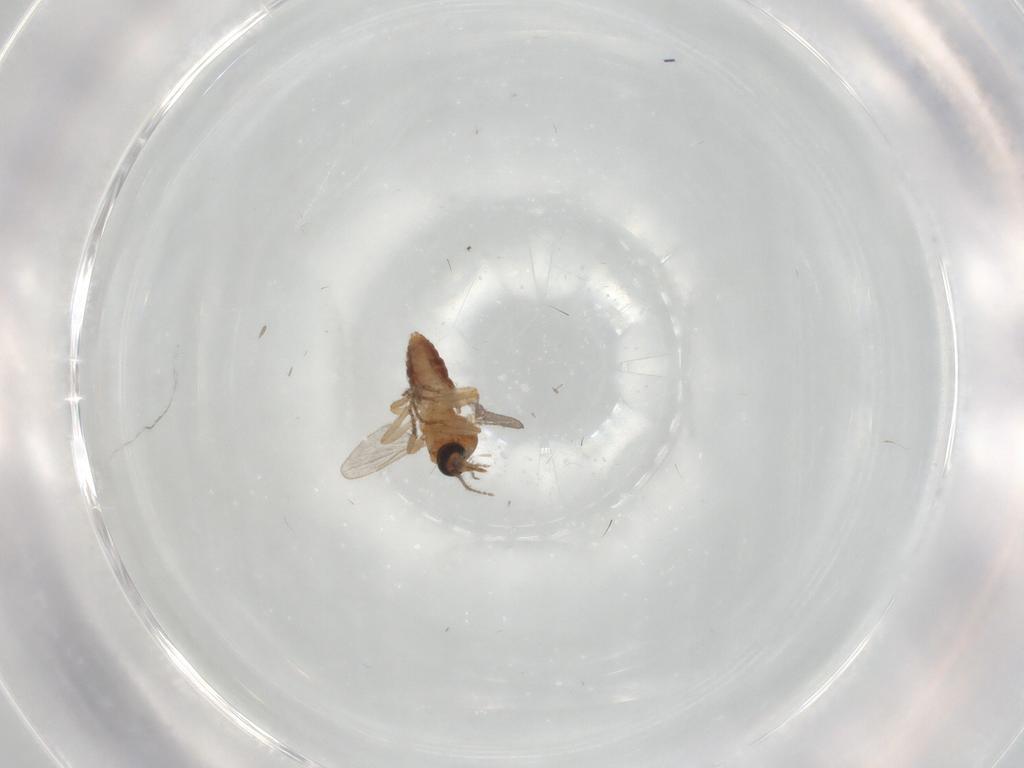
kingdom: Animalia
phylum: Arthropoda
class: Insecta
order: Diptera
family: Ceratopogonidae
